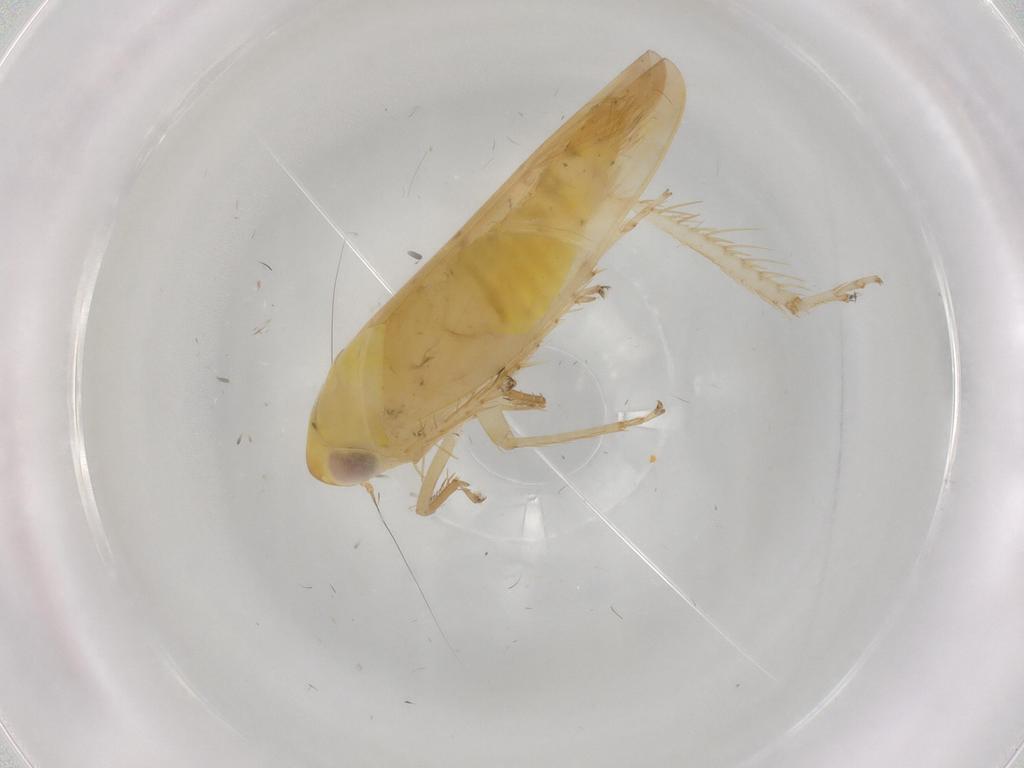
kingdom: Animalia
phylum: Arthropoda
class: Insecta
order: Hemiptera
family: Cicadellidae
